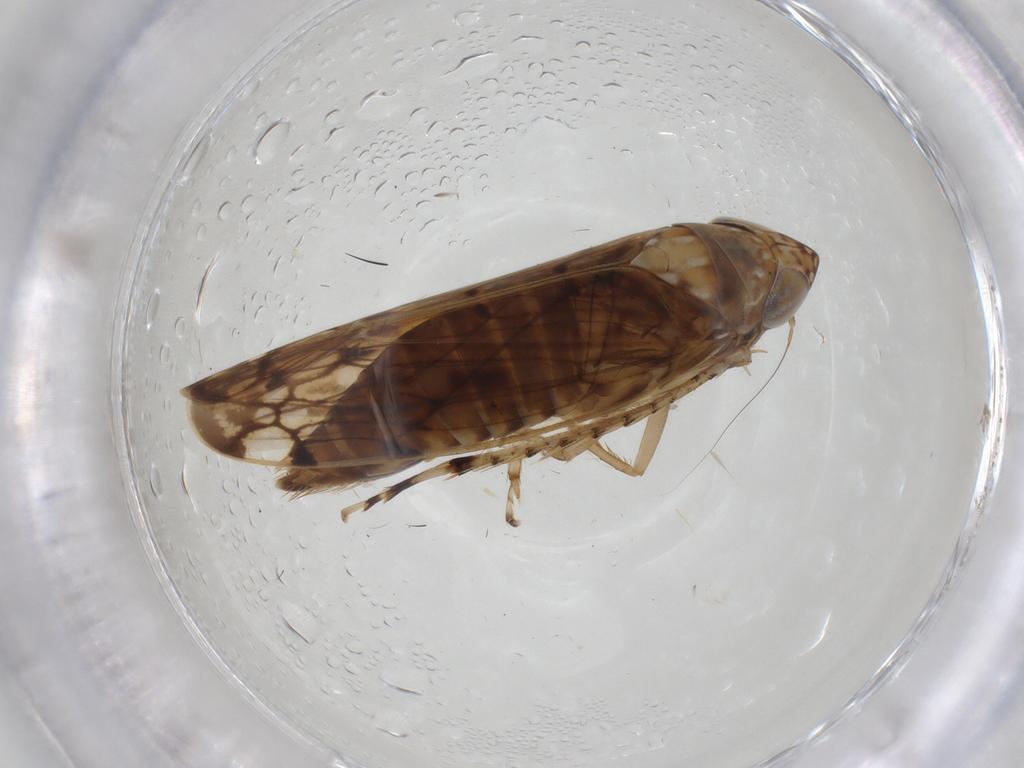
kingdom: Animalia
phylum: Arthropoda
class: Insecta
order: Hemiptera
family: Cicadellidae
